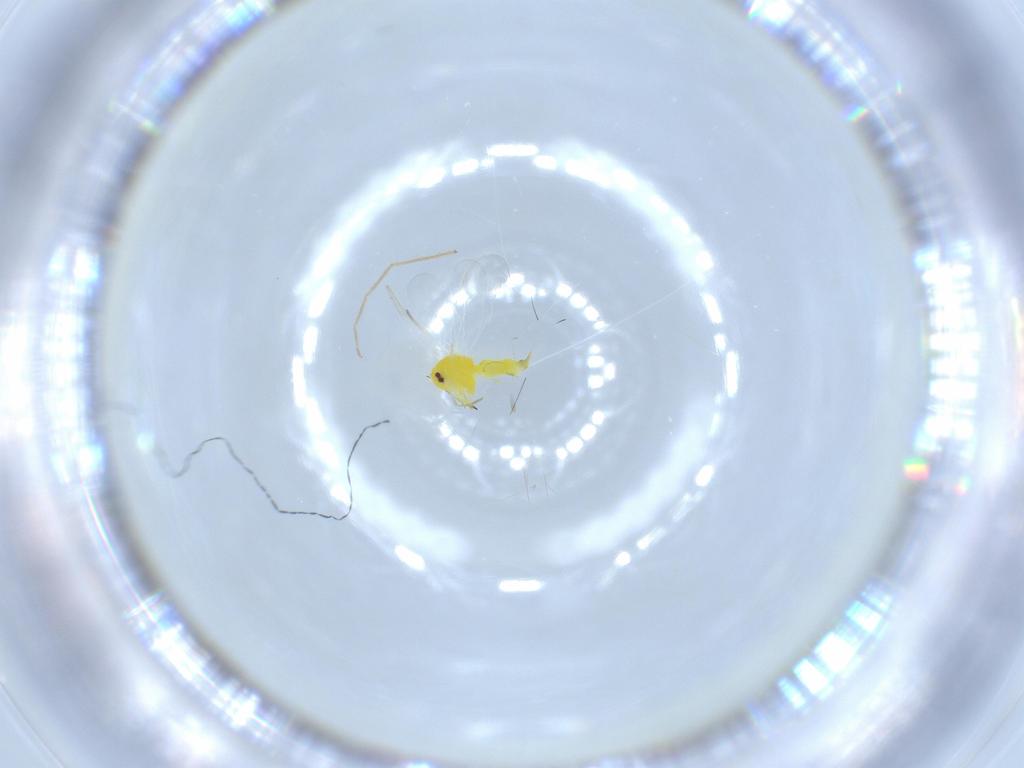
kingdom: Animalia
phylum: Arthropoda
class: Insecta
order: Hemiptera
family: Aleyrodidae
